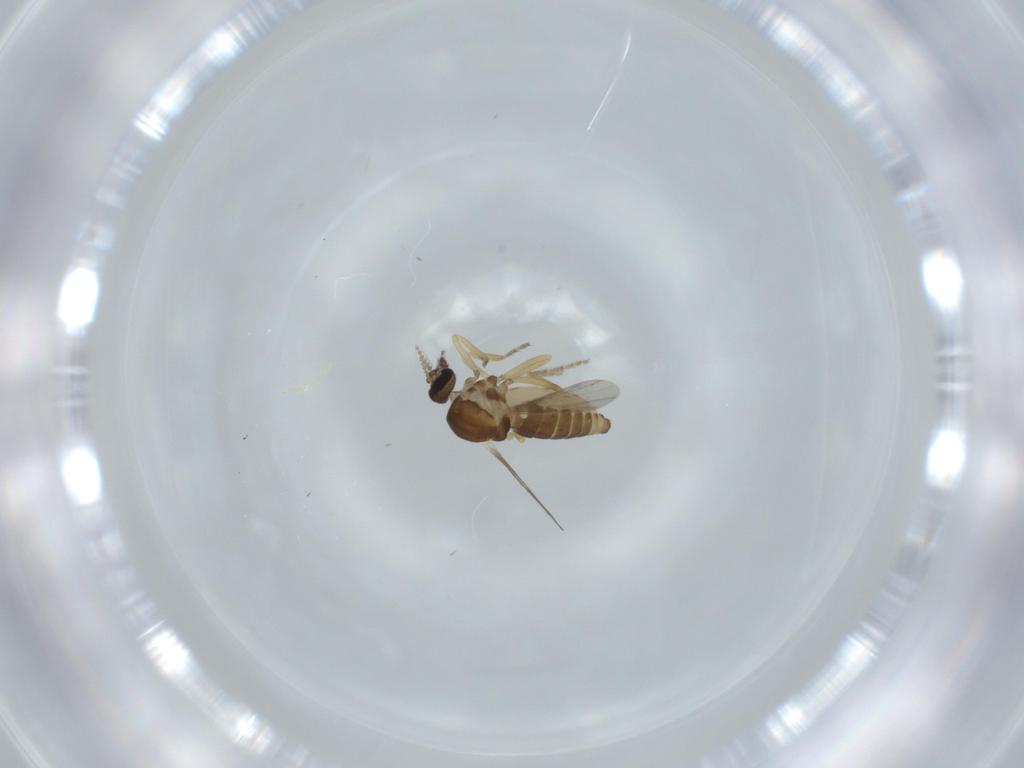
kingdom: Animalia
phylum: Arthropoda
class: Insecta
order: Diptera
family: Ceratopogonidae
